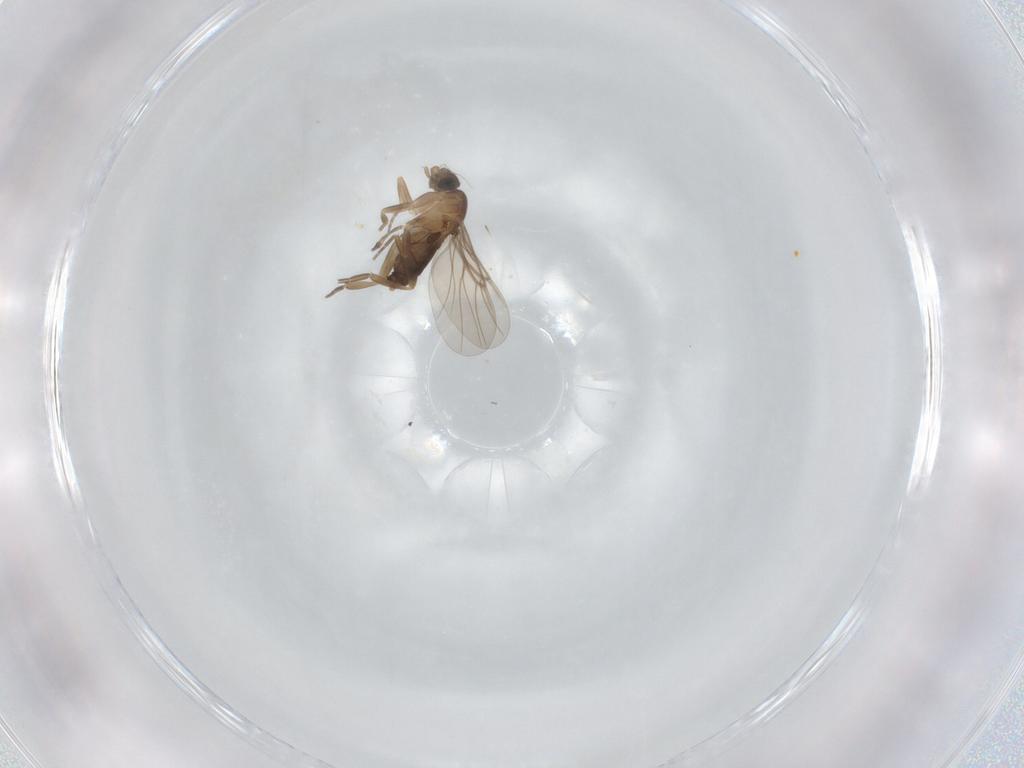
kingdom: Animalia
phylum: Arthropoda
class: Insecta
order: Diptera
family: Phoridae
